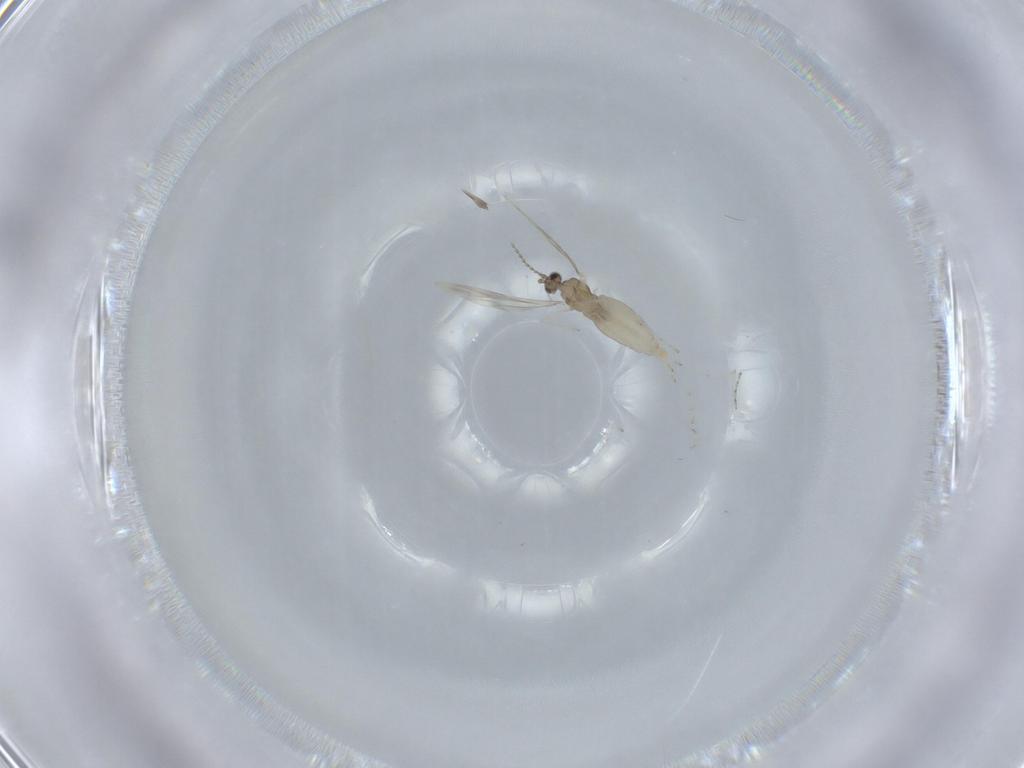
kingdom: Animalia
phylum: Arthropoda
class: Insecta
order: Diptera
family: Cecidomyiidae
